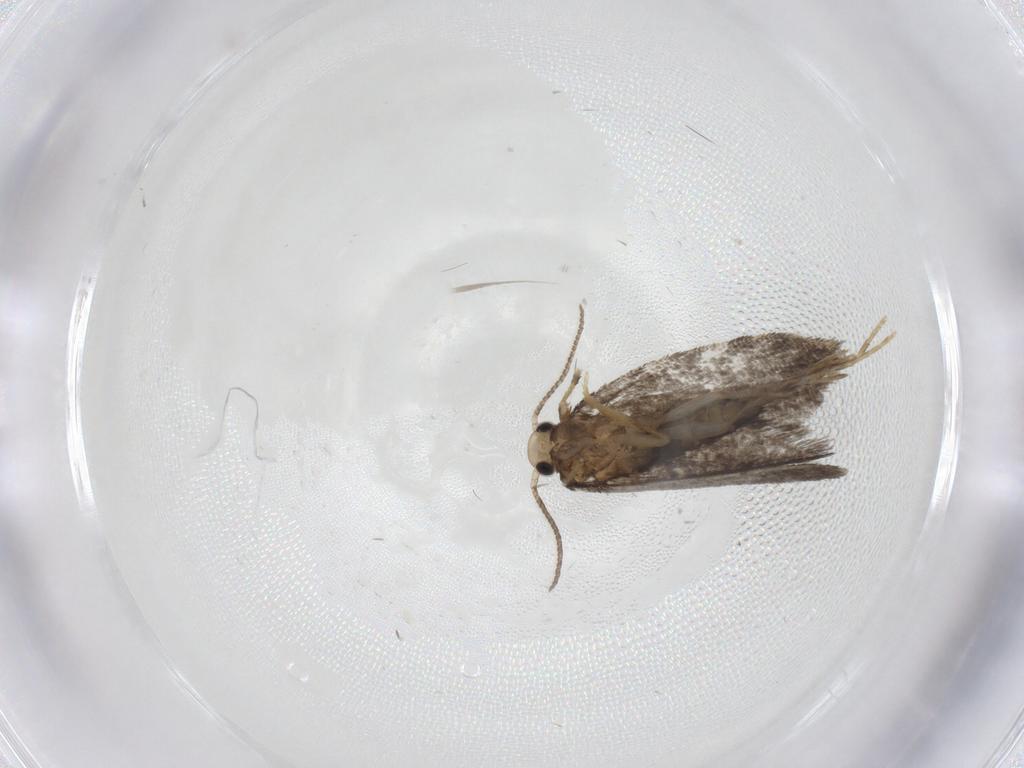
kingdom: Animalia
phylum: Arthropoda
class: Insecta
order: Lepidoptera
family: Psychidae
